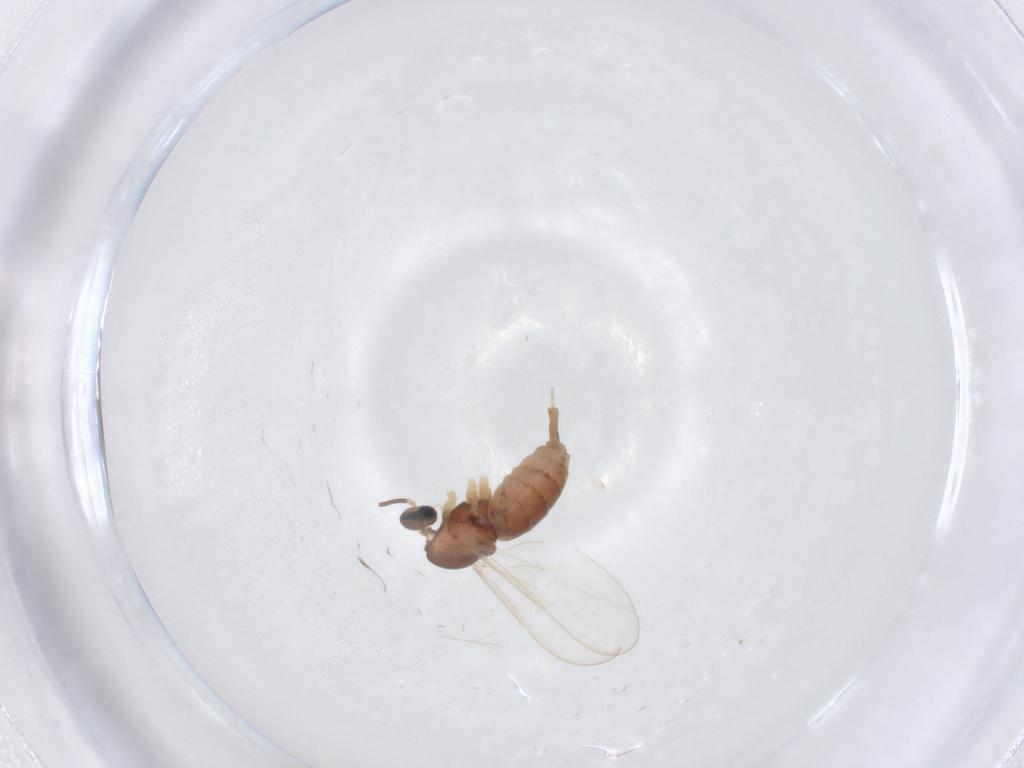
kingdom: Animalia
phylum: Arthropoda
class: Insecta
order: Diptera
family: Cecidomyiidae
